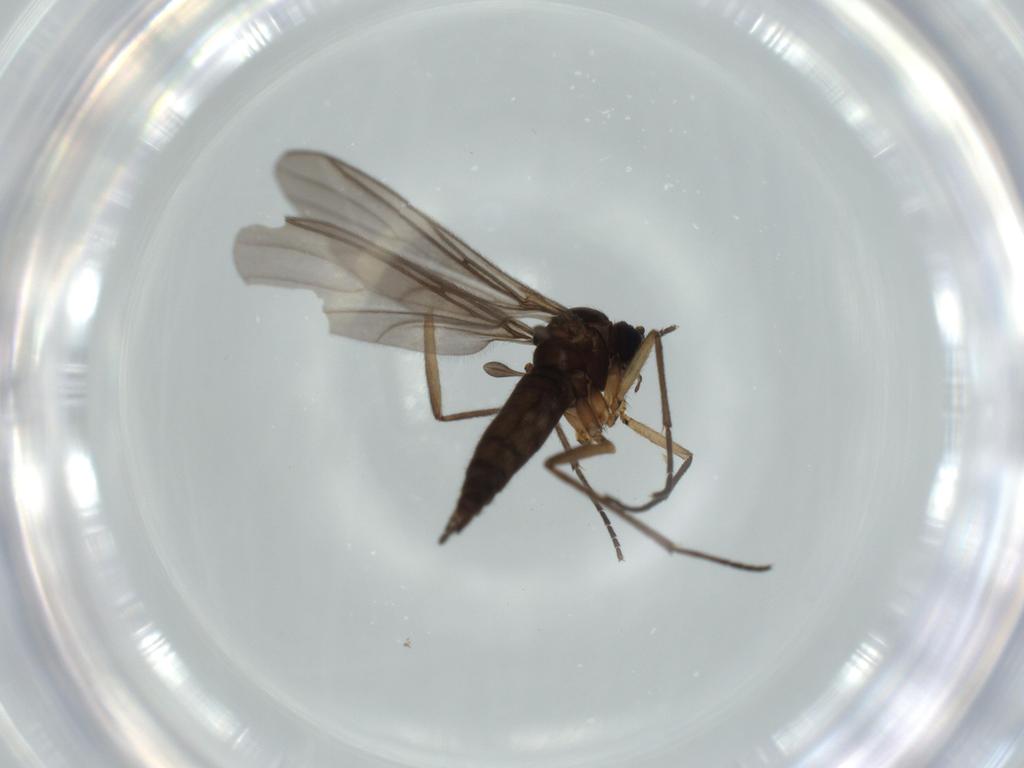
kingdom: Animalia
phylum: Arthropoda
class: Insecta
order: Diptera
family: Sciaridae
